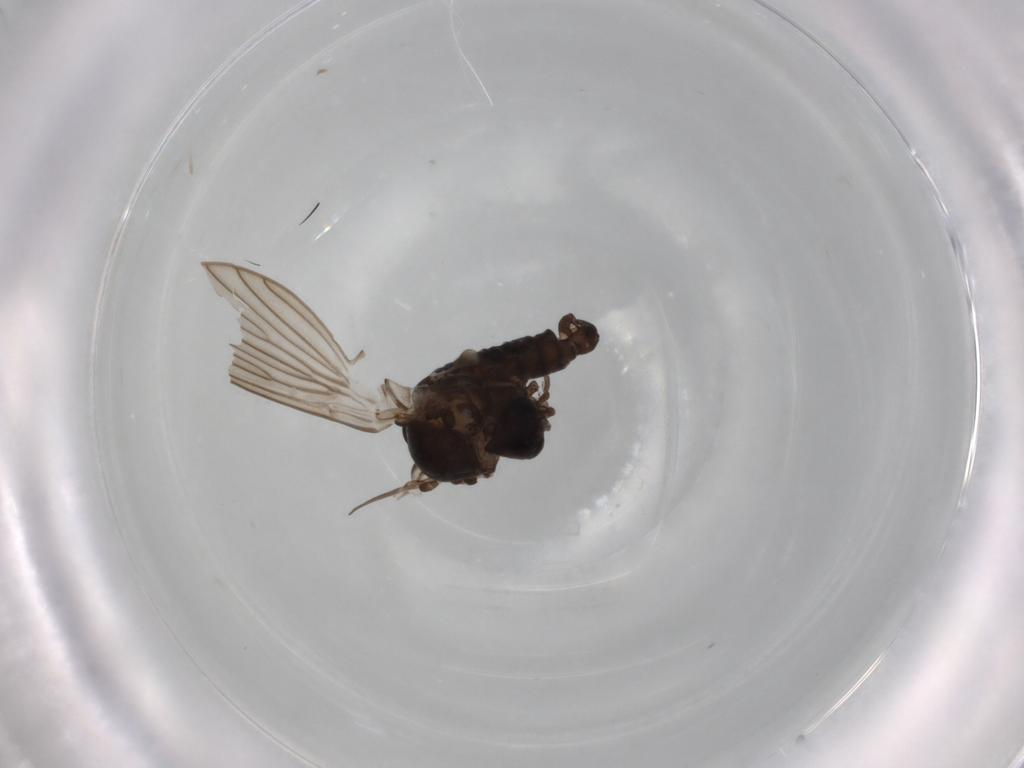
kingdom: Animalia
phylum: Arthropoda
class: Insecta
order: Diptera
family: Psychodidae
